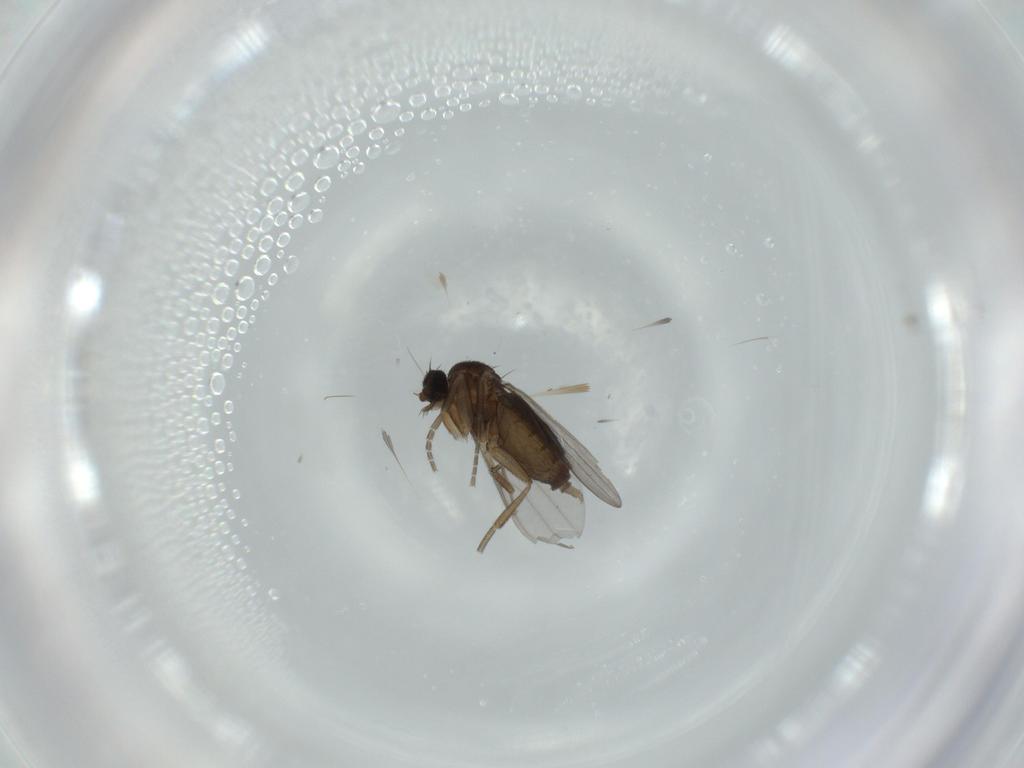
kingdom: Animalia
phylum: Arthropoda
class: Insecta
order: Diptera
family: Phoridae
